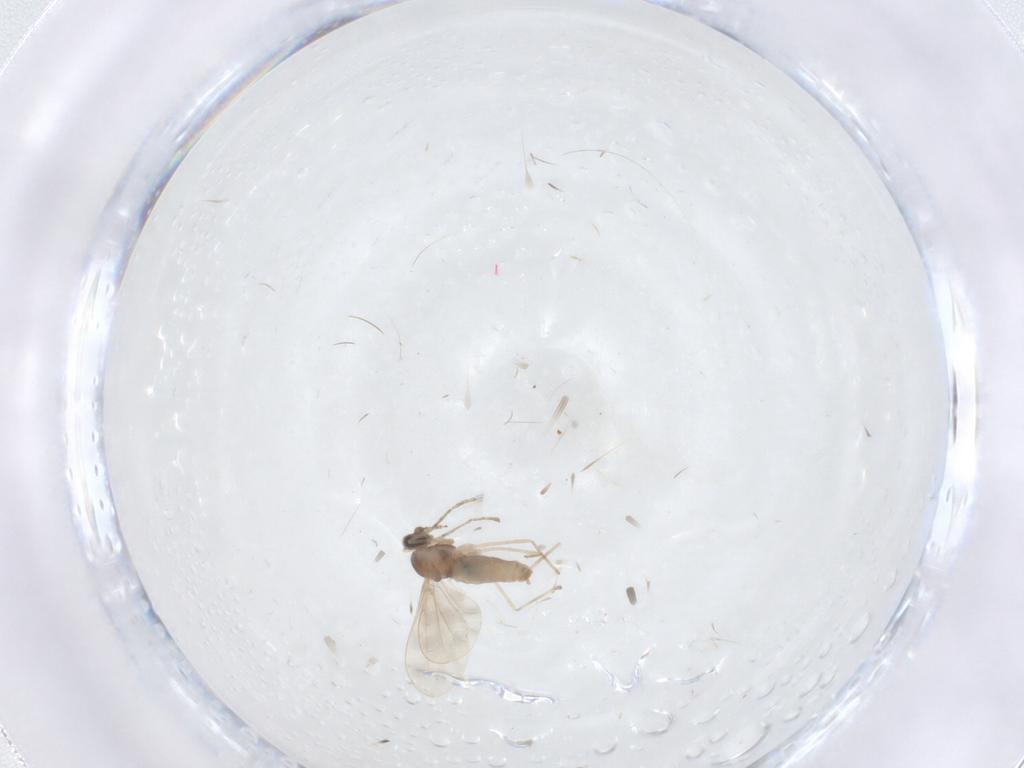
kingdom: Animalia
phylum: Arthropoda
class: Insecta
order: Diptera
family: Cecidomyiidae
